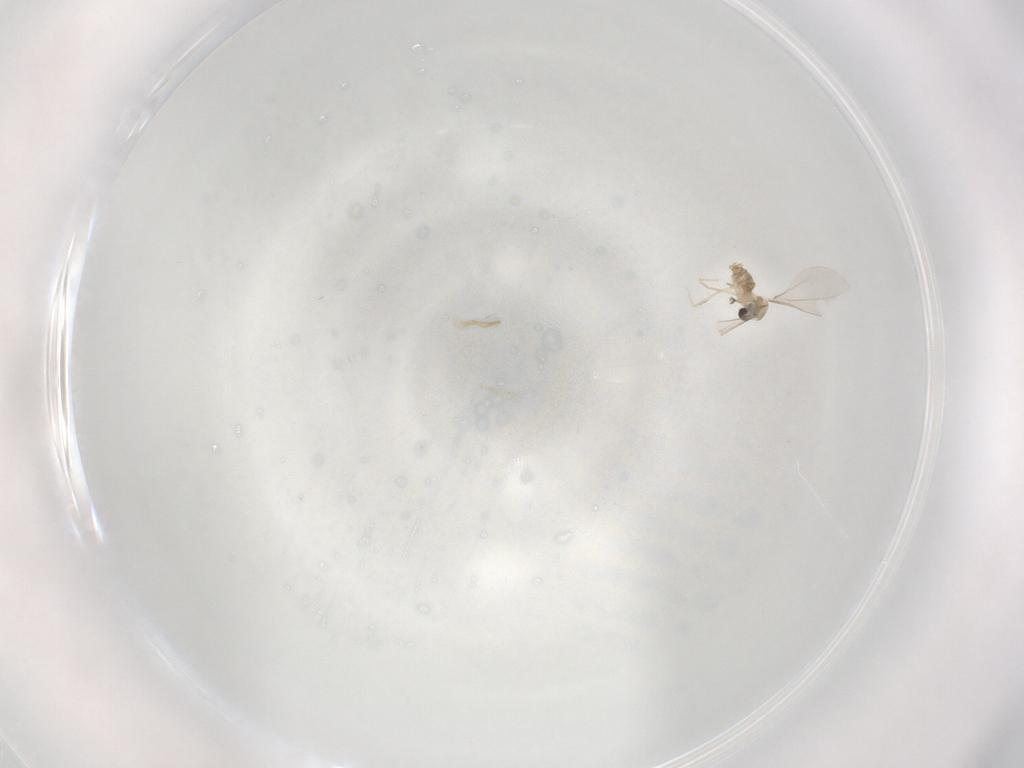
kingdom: Animalia
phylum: Arthropoda
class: Insecta
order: Diptera
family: Cecidomyiidae
